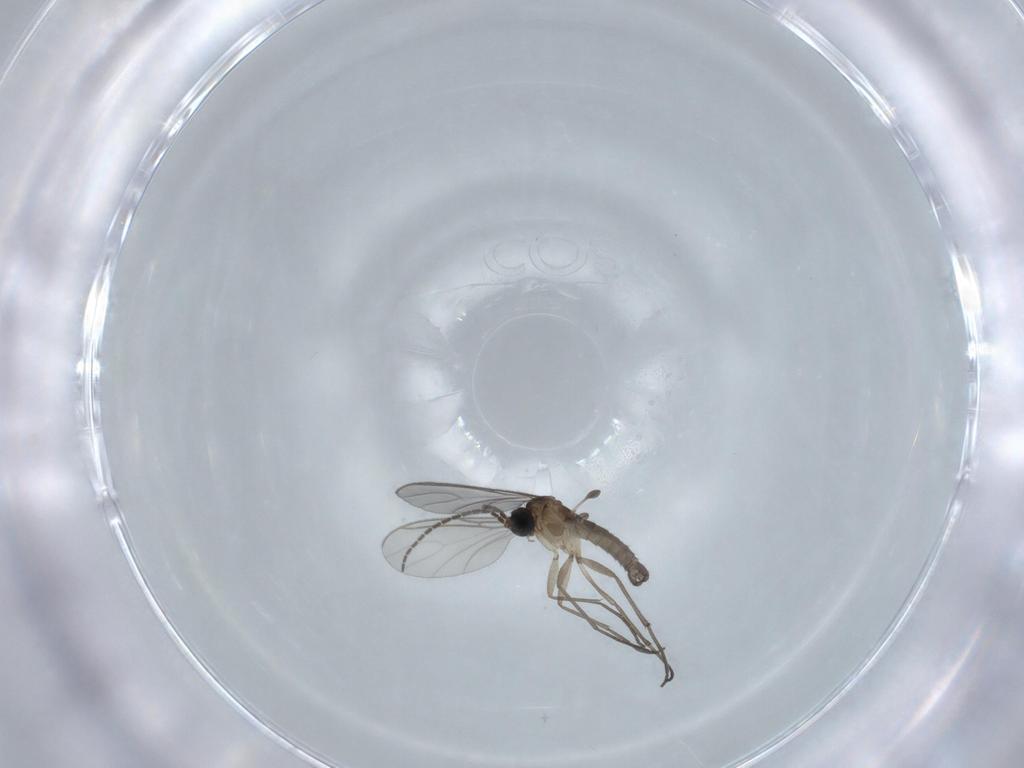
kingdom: Animalia
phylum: Arthropoda
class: Insecta
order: Diptera
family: Sciaridae
